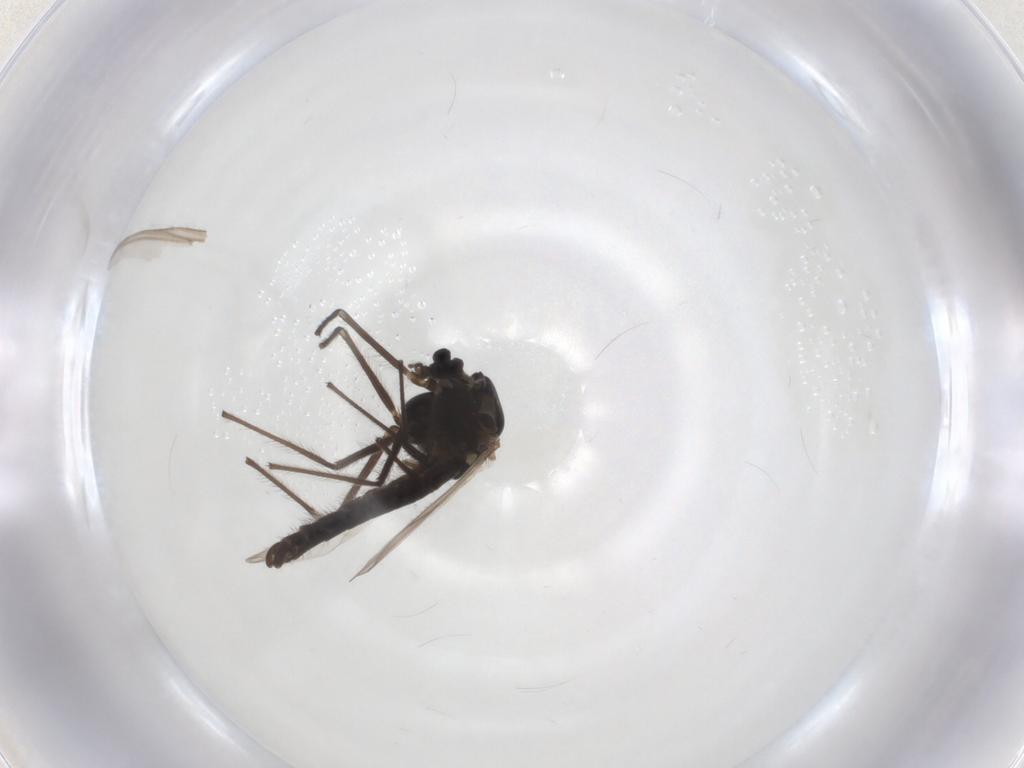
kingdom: Animalia
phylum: Arthropoda
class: Insecta
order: Diptera
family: Chironomidae
